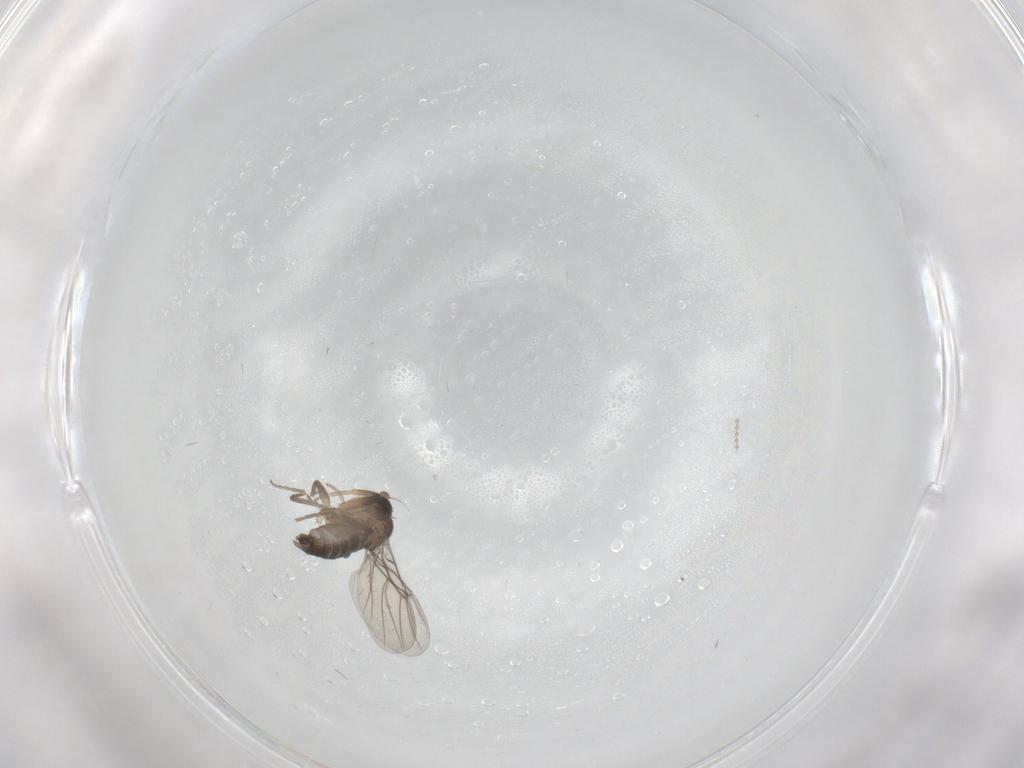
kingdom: Animalia
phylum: Arthropoda
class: Insecta
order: Diptera
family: Sciaridae
